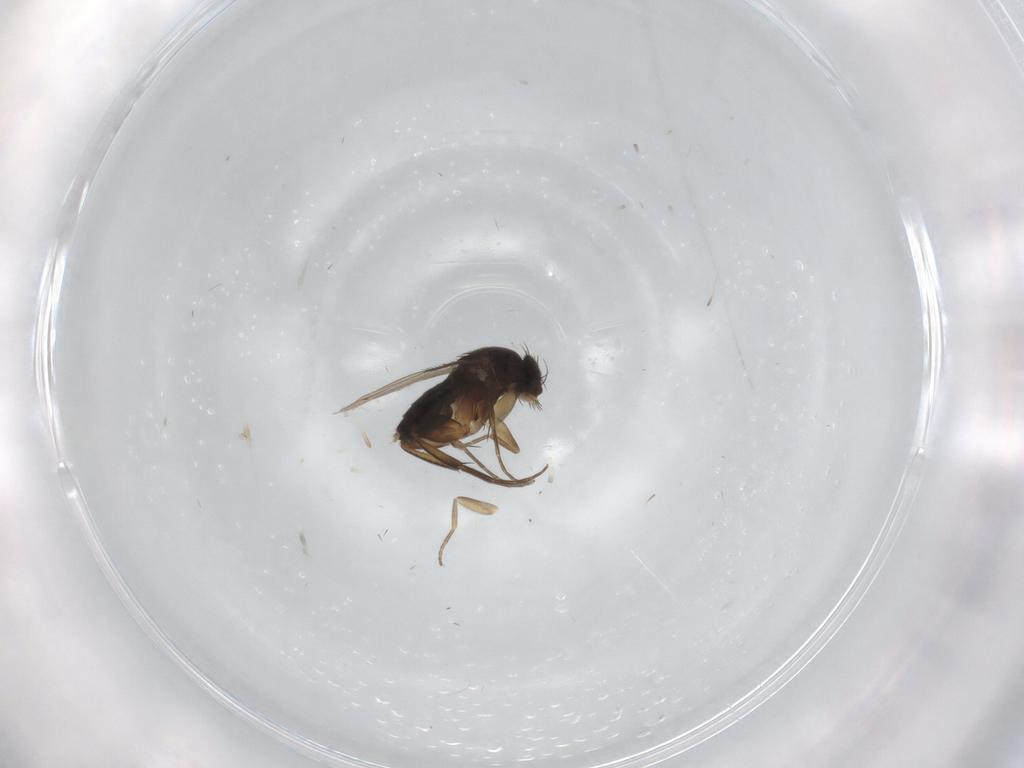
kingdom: Animalia
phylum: Arthropoda
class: Insecta
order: Diptera
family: Phoridae
